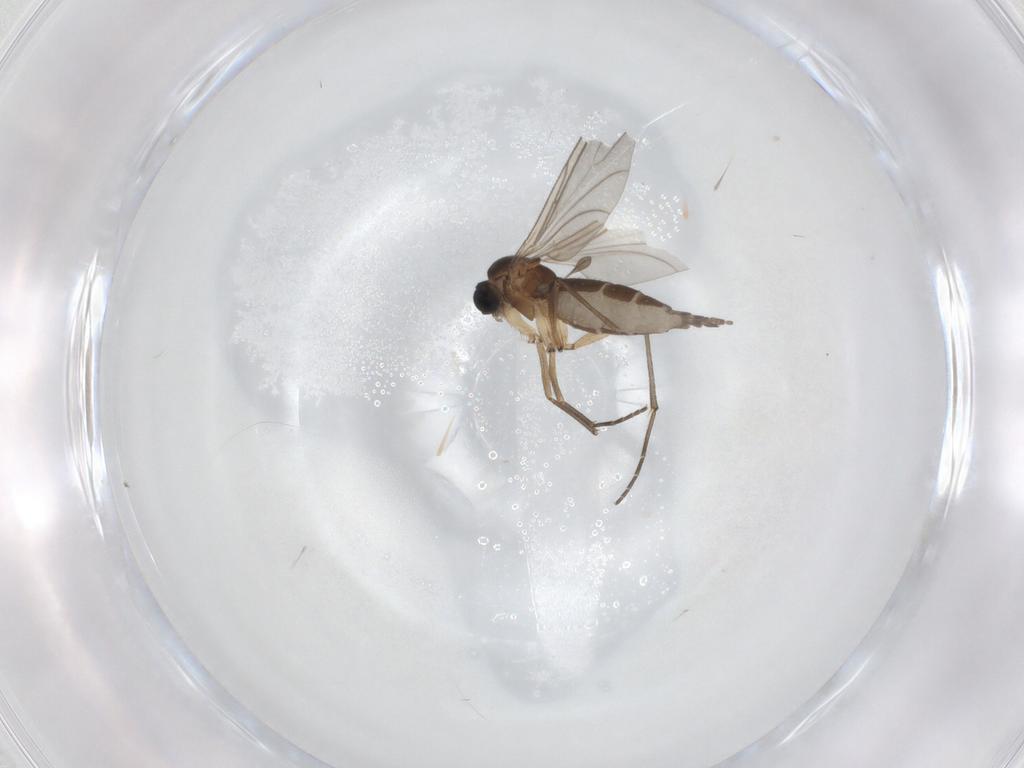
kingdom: Animalia
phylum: Arthropoda
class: Insecta
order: Diptera
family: Sciaridae
